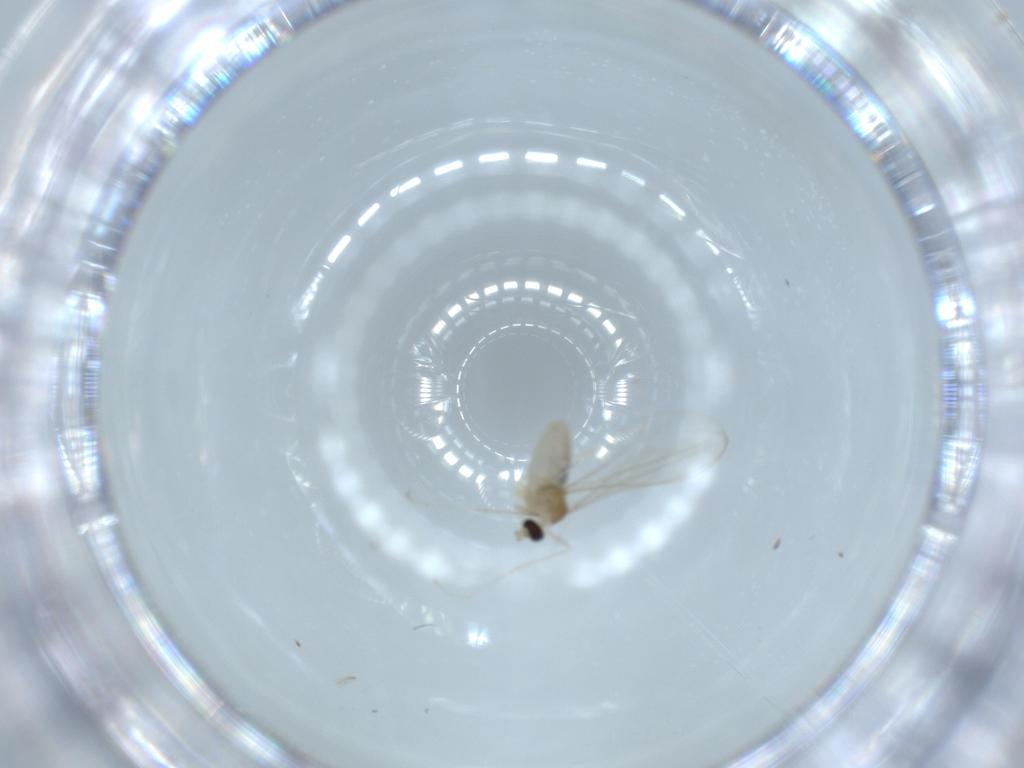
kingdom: Animalia
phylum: Arthropoda
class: Insecta
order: Diptera
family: Cecidomyiidae
